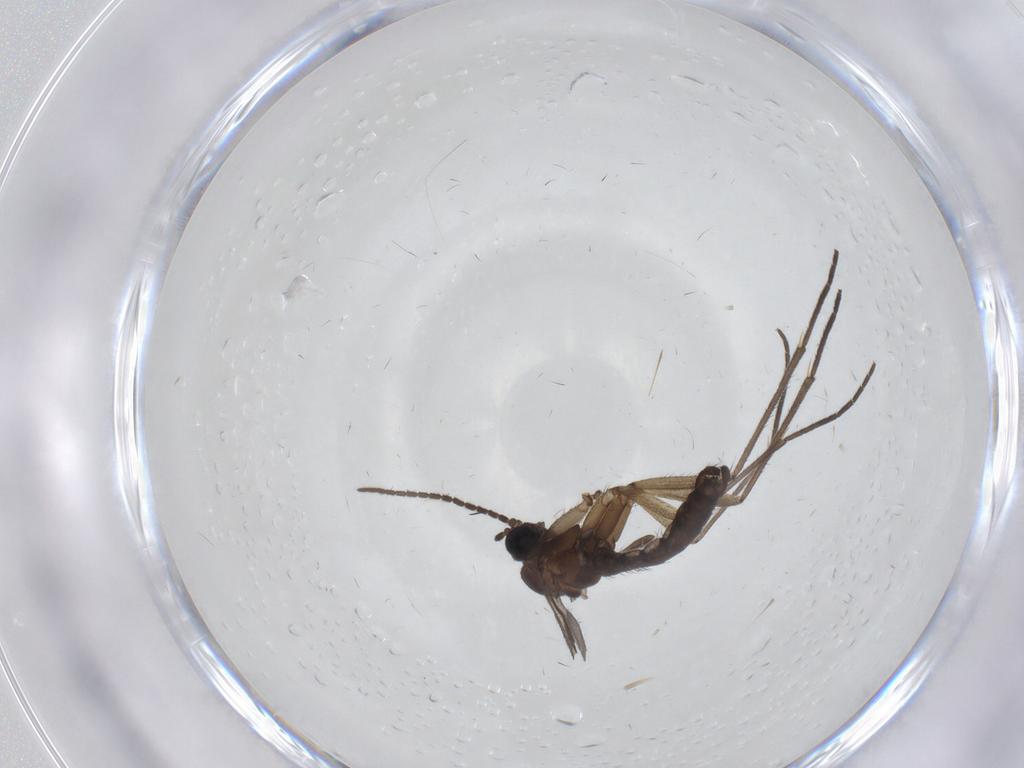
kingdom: Animalia
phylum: Arthropoda
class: Insecta
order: Diptera
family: Sciaridae
